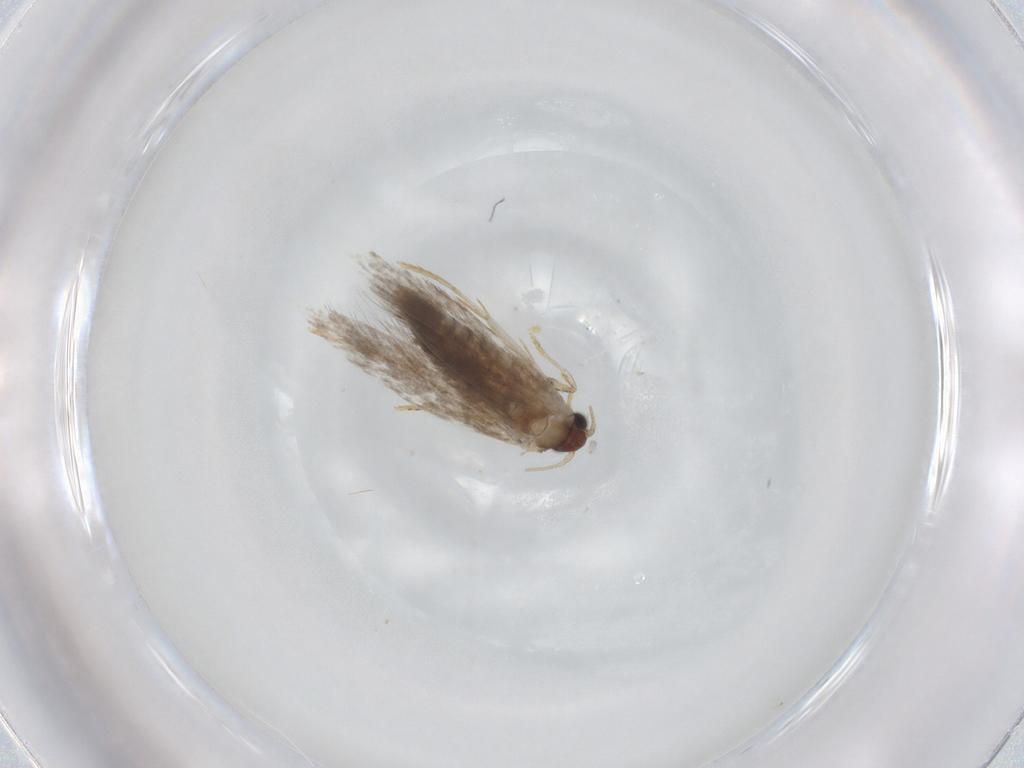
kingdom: Animalia
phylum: Arthropoda
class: Insecta
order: Lepidoptera
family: Tineidae
